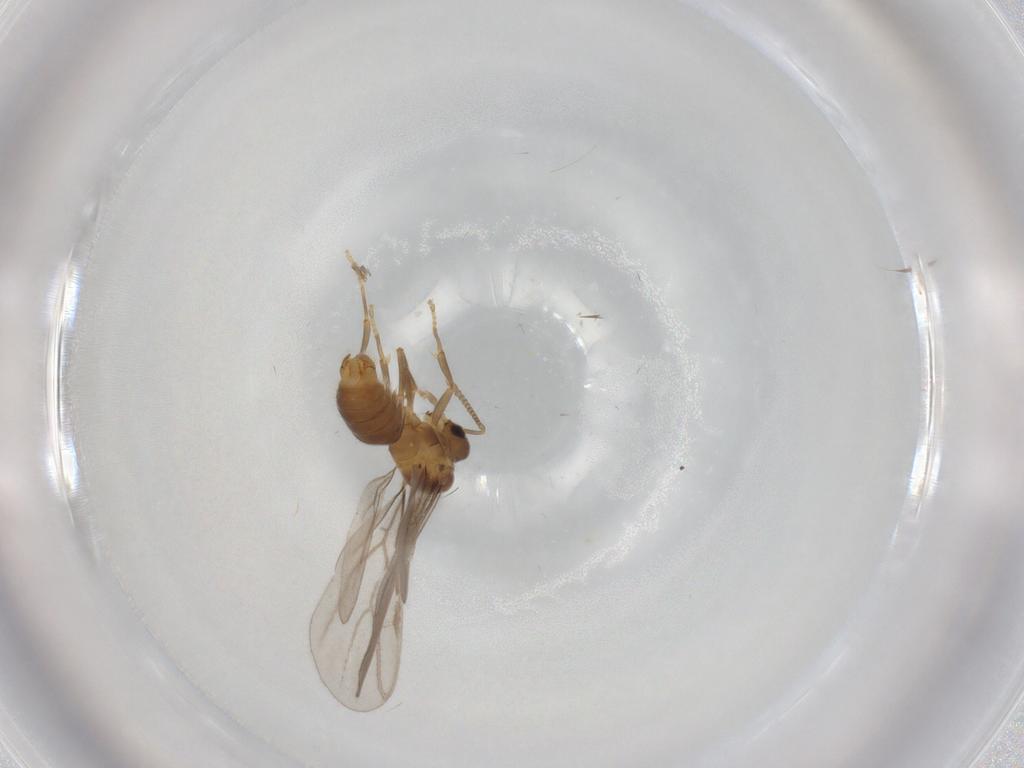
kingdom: Animalia
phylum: Arthropoda
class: Insecta
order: Hymenoptera
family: Formicidae
